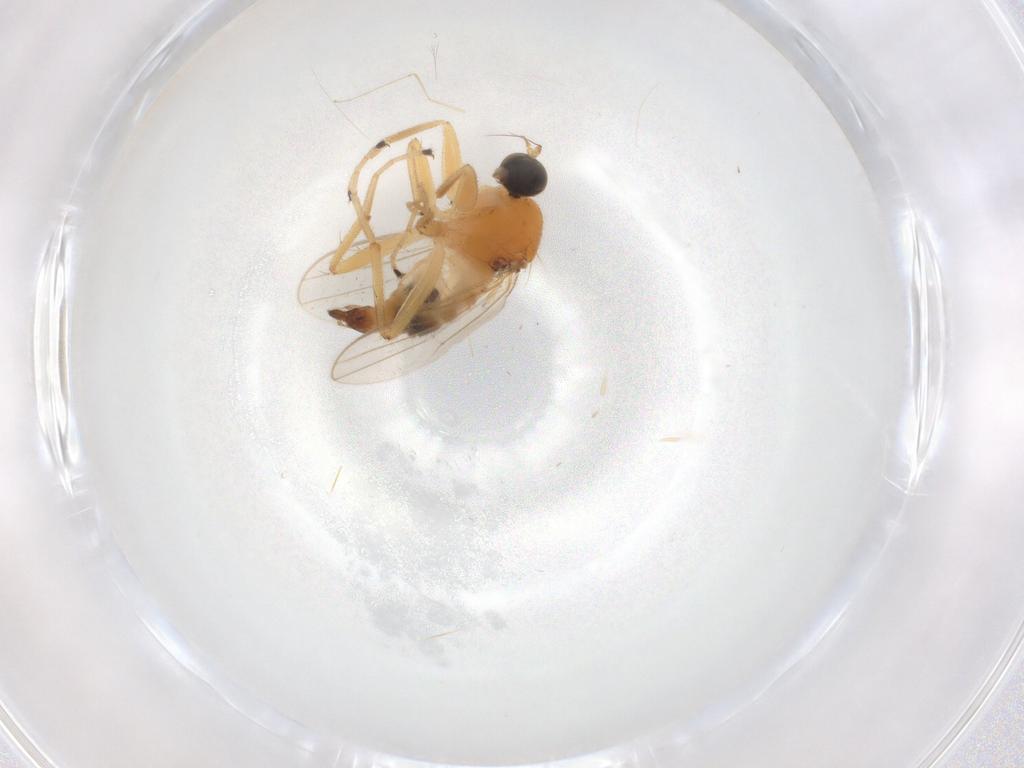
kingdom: Animalia
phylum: Arthropoda
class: Insecta
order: Diptera
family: Hybotidae
